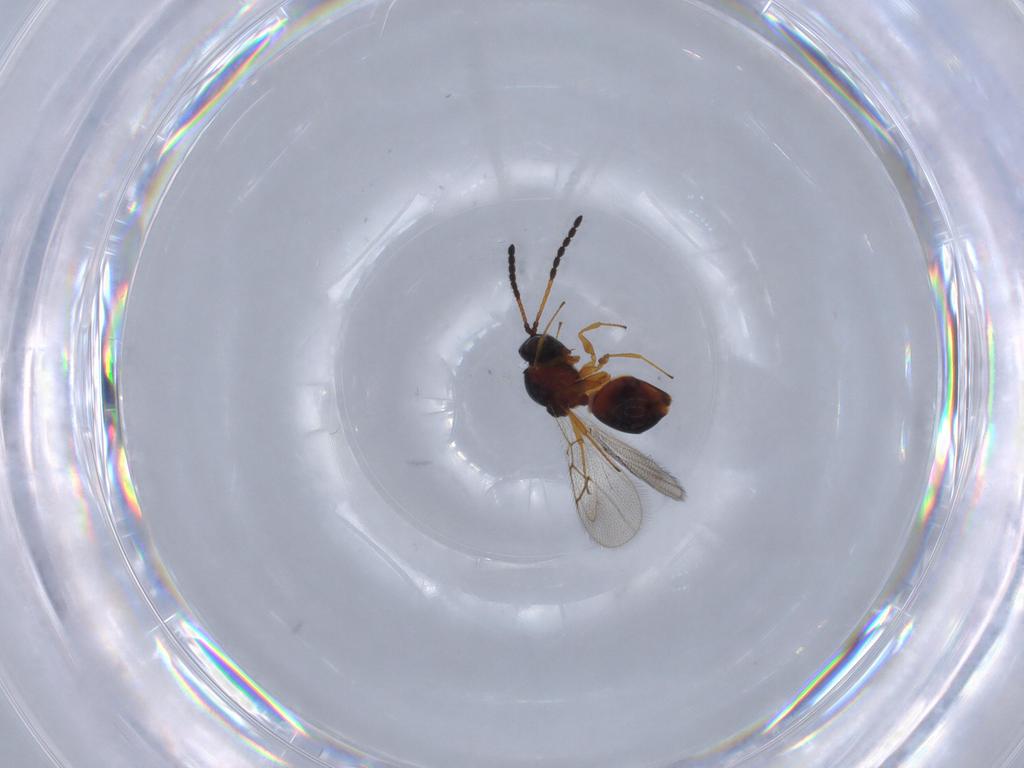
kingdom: Animalia
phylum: Arthropoda
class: Insecta
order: Hymenoptera
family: Figitidae
